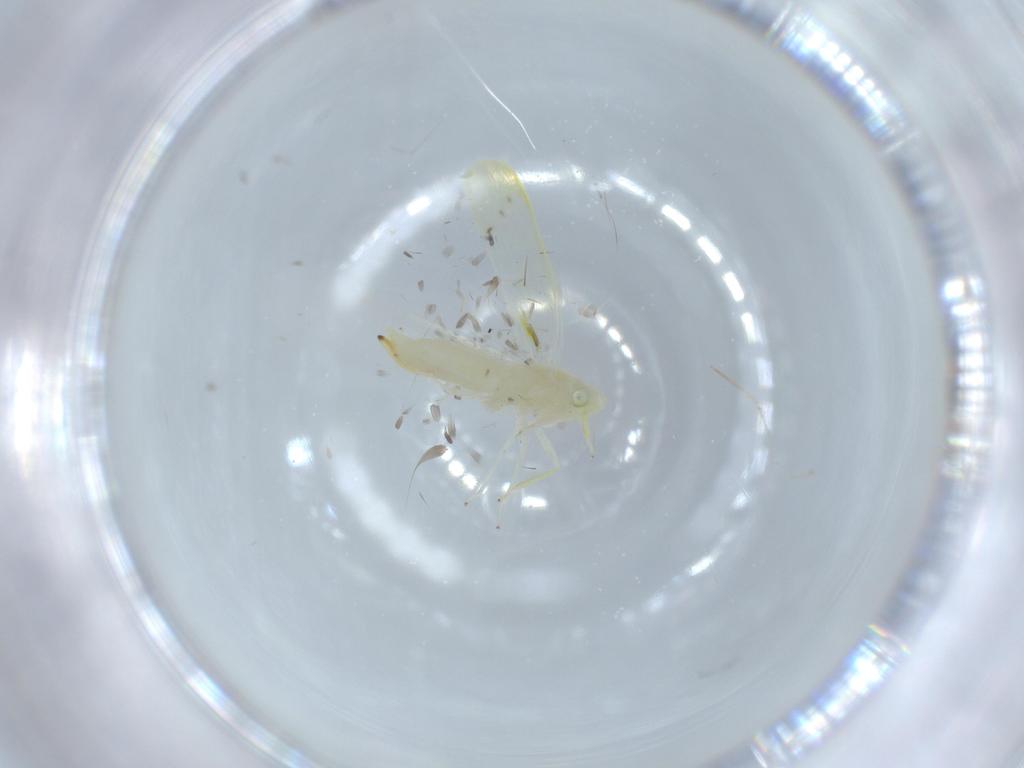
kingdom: Animalia
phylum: Arthropoda
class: Insecta
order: Hemiptera
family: Cicadellidae
